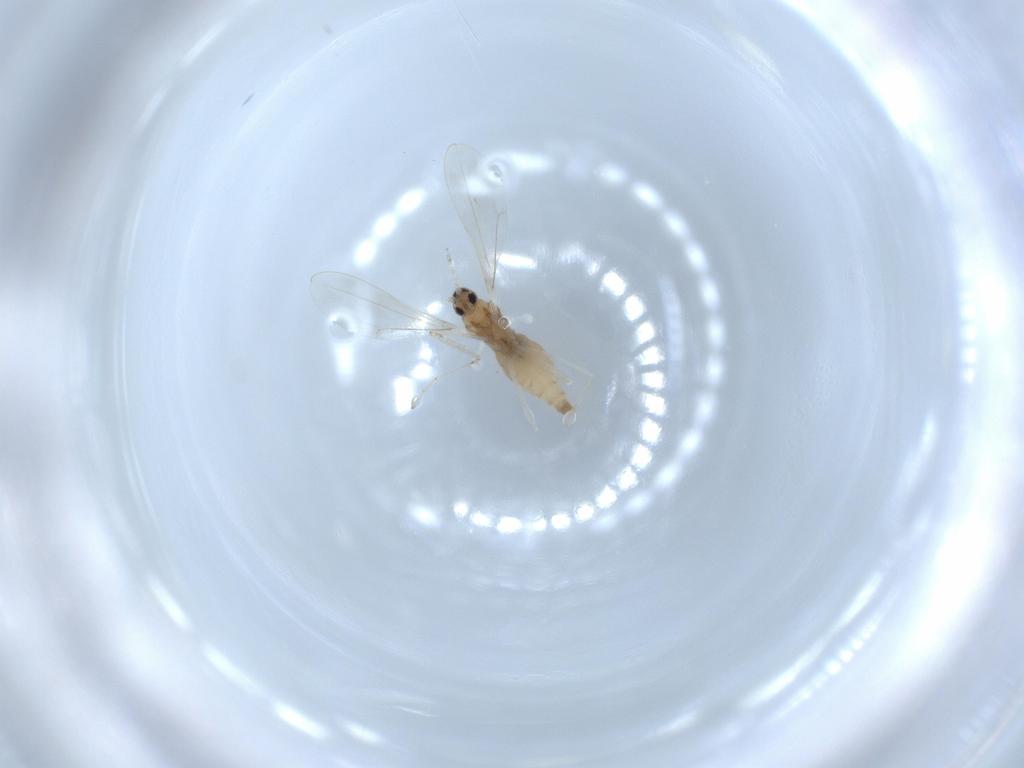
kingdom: Animalia
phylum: Arthropoda
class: Insecta
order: Diptera
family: Cecidomyiidae
